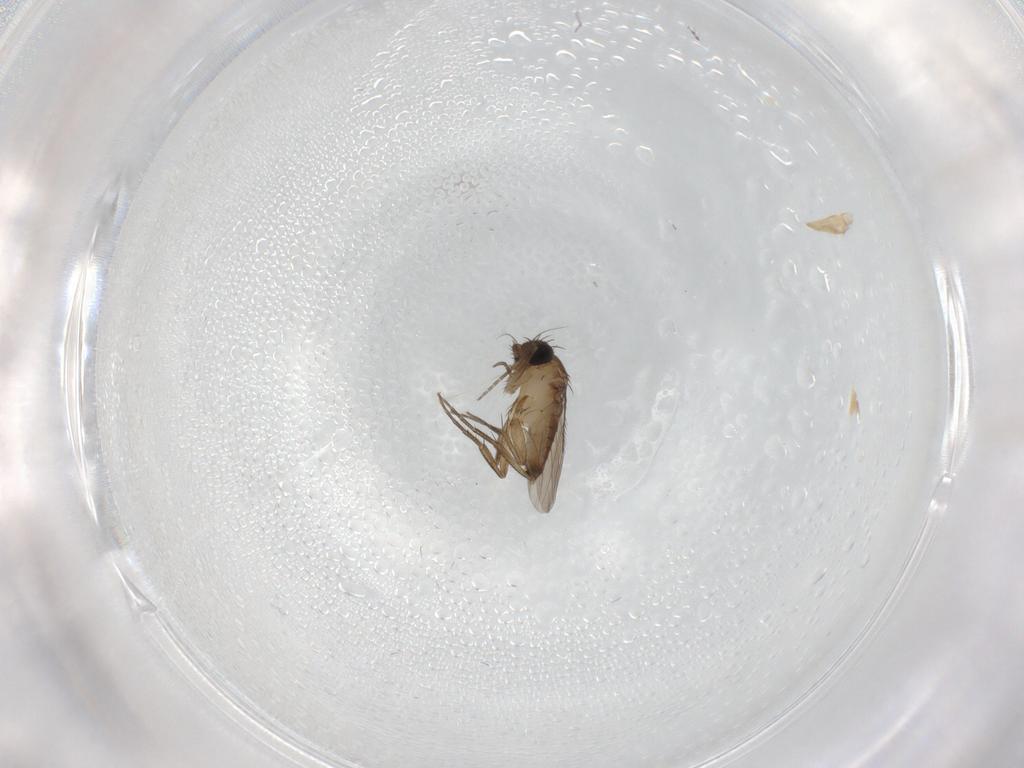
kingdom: Animalia
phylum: Arthropoda
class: Insecta
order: Diptera
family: Phoridae
